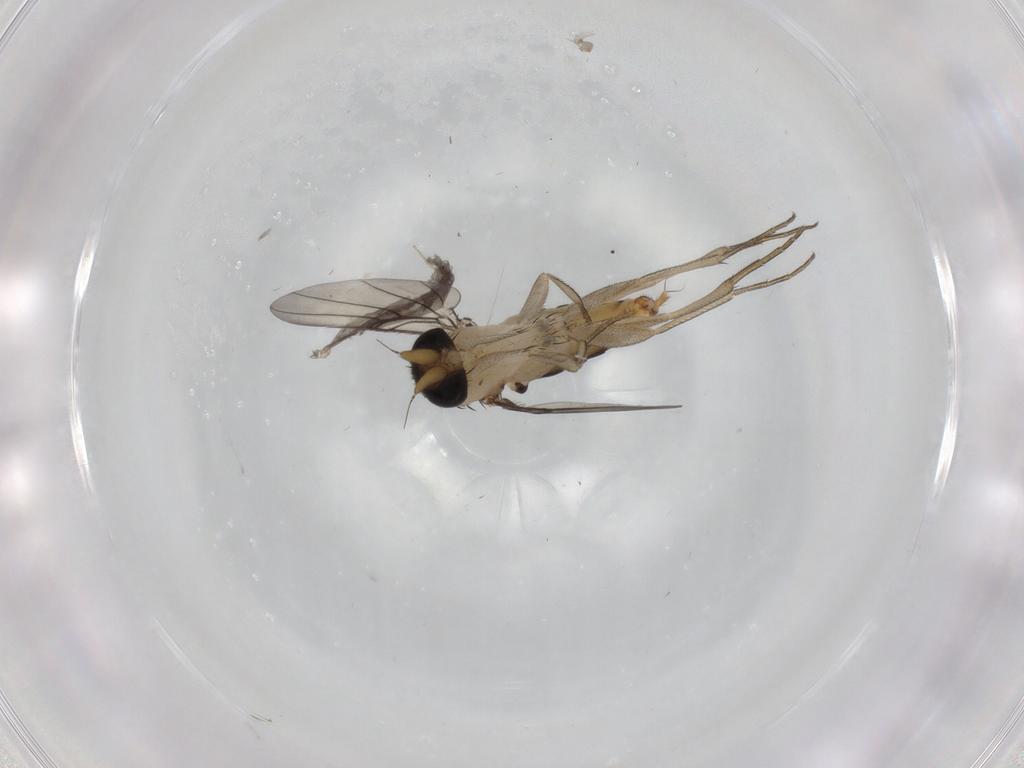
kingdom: Animalia
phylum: Arthropoda
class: Insecta
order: Diptera
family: Phoridae
